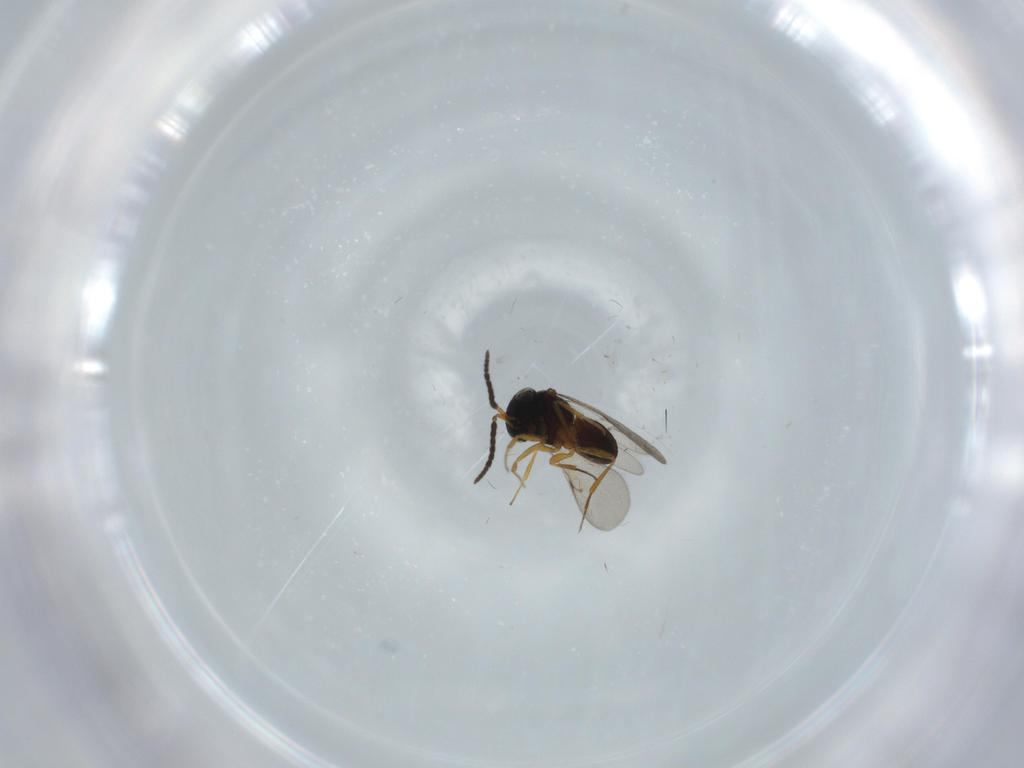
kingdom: Animalia
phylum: Arthropoda
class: Insecta
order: Coleoptera
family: Curculionidae
